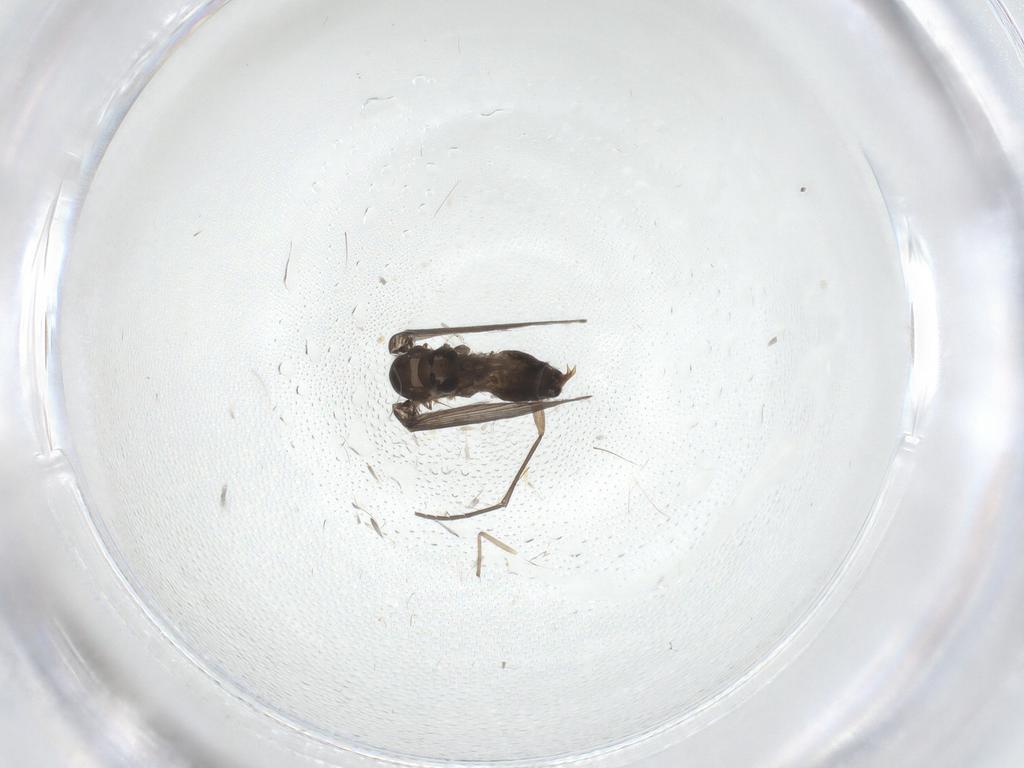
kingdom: Animalia
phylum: Arthropoda
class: Insecta
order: Diptera
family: Psychodidae
